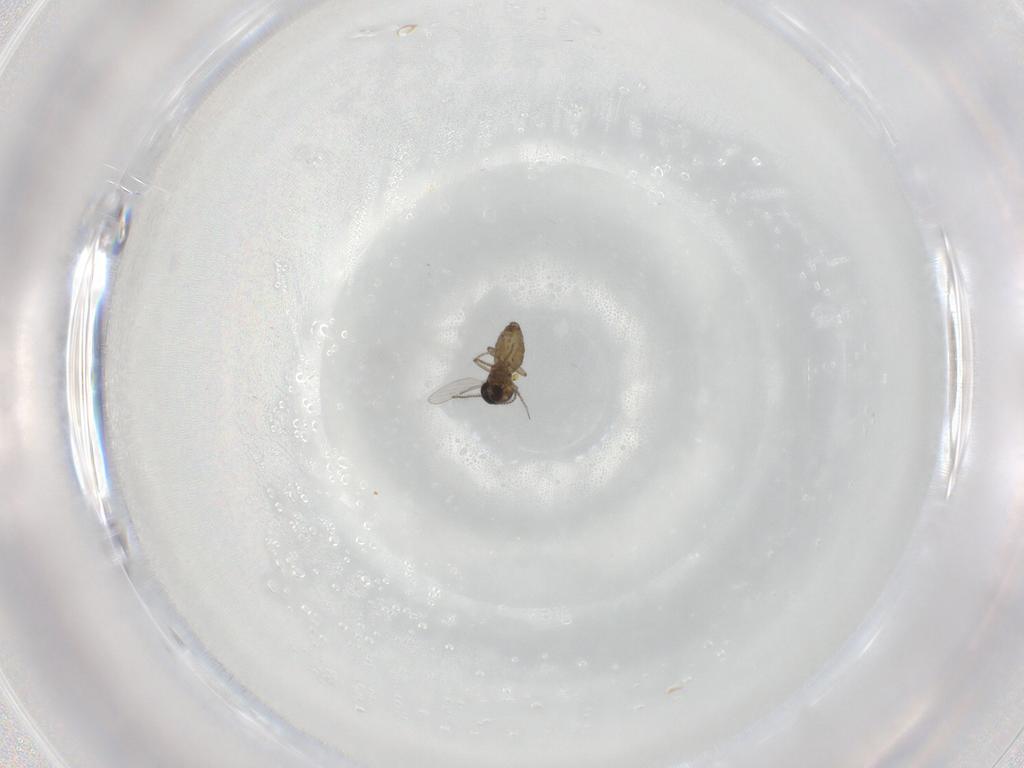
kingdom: Animalia
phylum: Arthropoda
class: Insecta
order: Diptera
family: Ceratopogonidae
